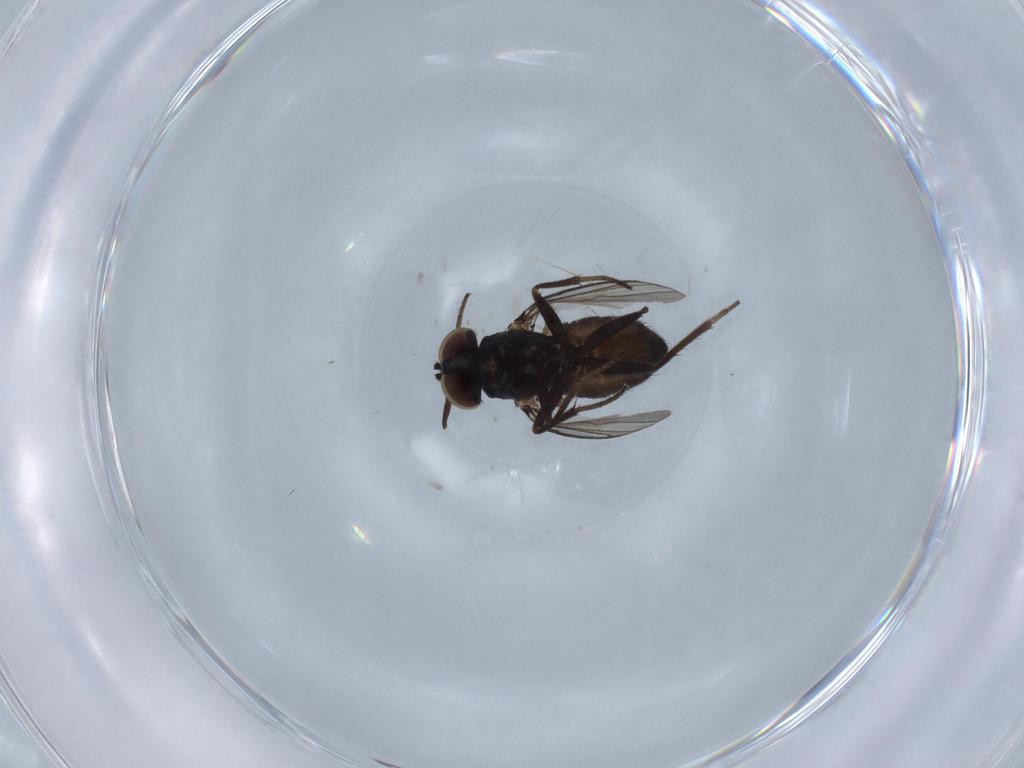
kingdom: Animalia
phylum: Arthropoda
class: Insecta
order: Diptera
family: Dolichopodidae
